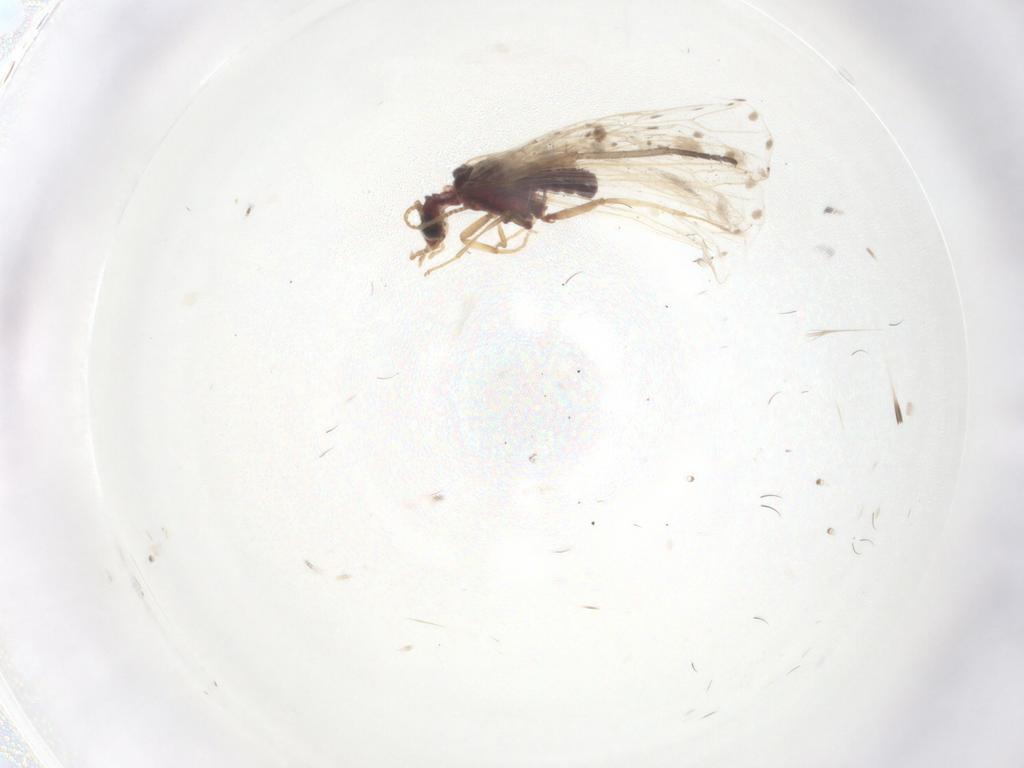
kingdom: Animalia
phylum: Arthropoda
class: Insecta
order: Neuroptera
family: Coniopterygidae
